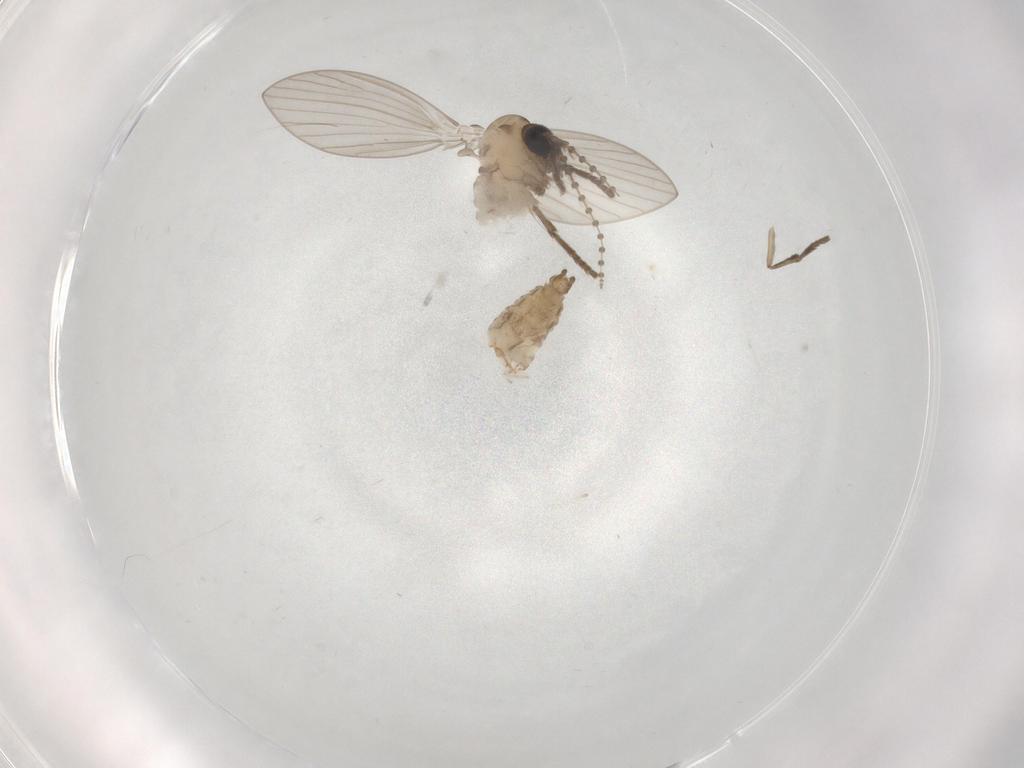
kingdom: Animalia
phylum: Arthropoda
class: Insecta
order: Diptera
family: Psychodidae
